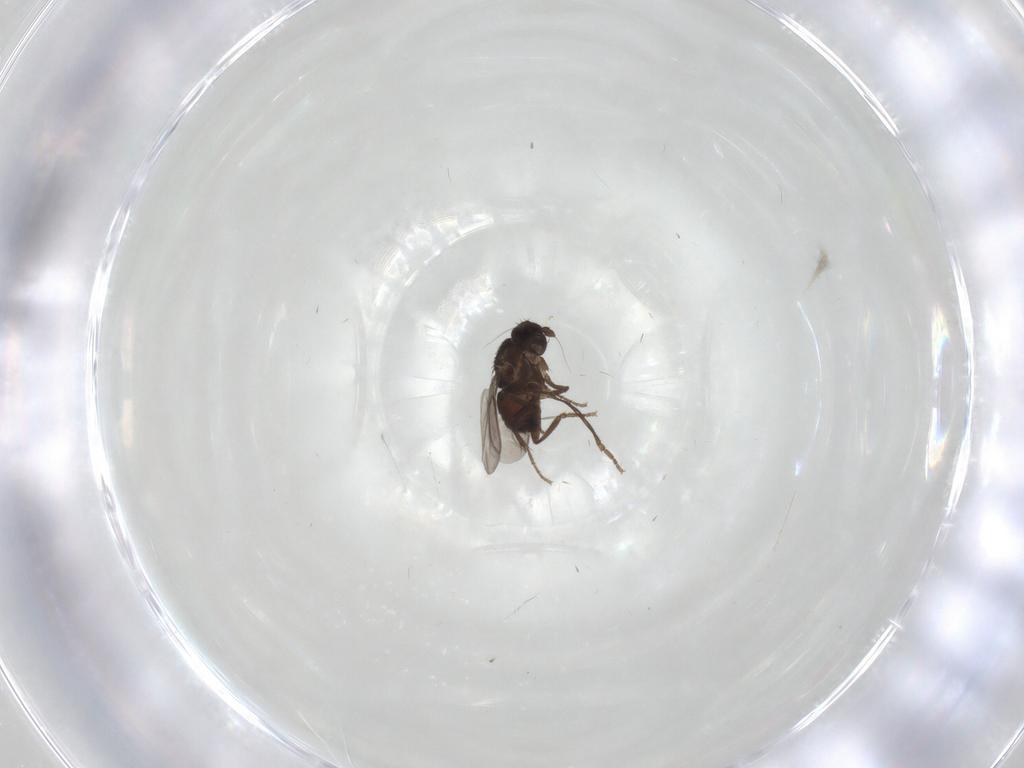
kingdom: Animalia
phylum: Arthropoda
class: Insecta
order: Diptera
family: Sphaeroceridae
